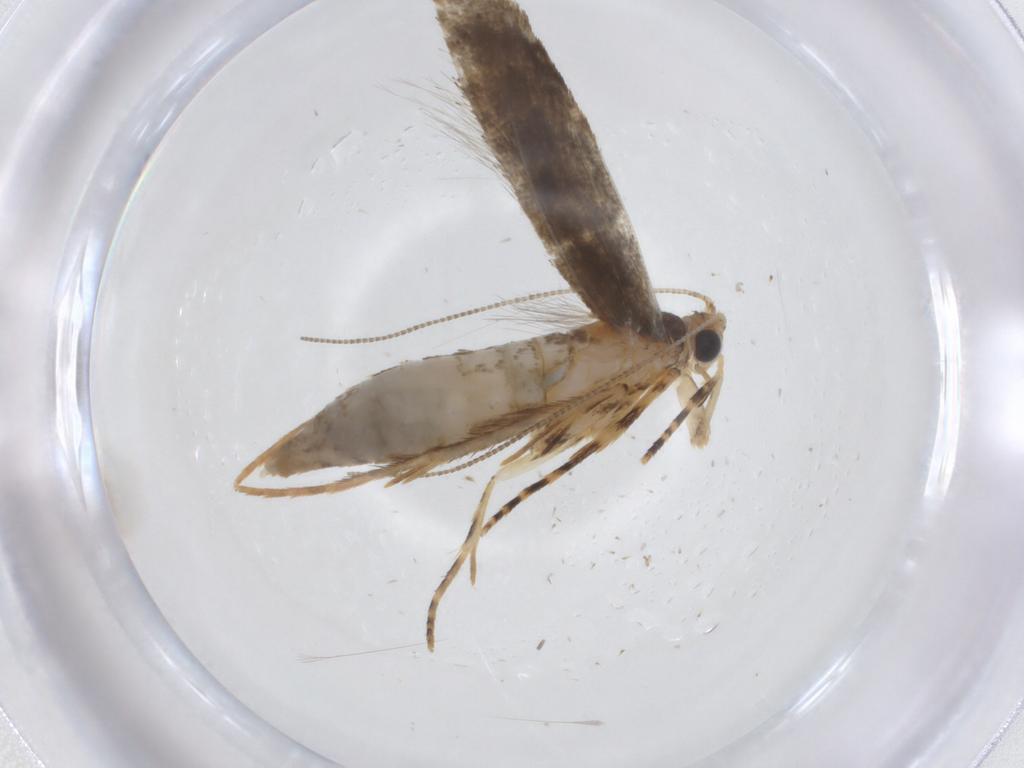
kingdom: Animalia
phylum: Arthropoda
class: Insecta
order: Lepidoptera
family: Tineidae
